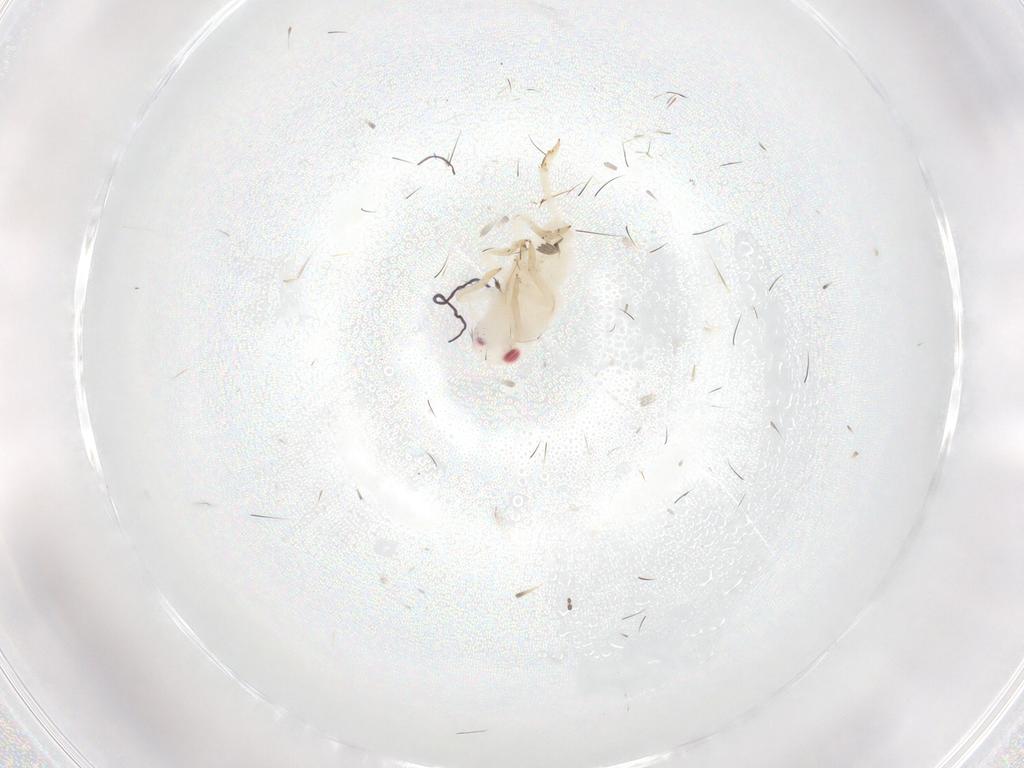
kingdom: Animalia
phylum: Arthropoda
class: Insecta
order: Hemiptera
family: Tropiduchidae
